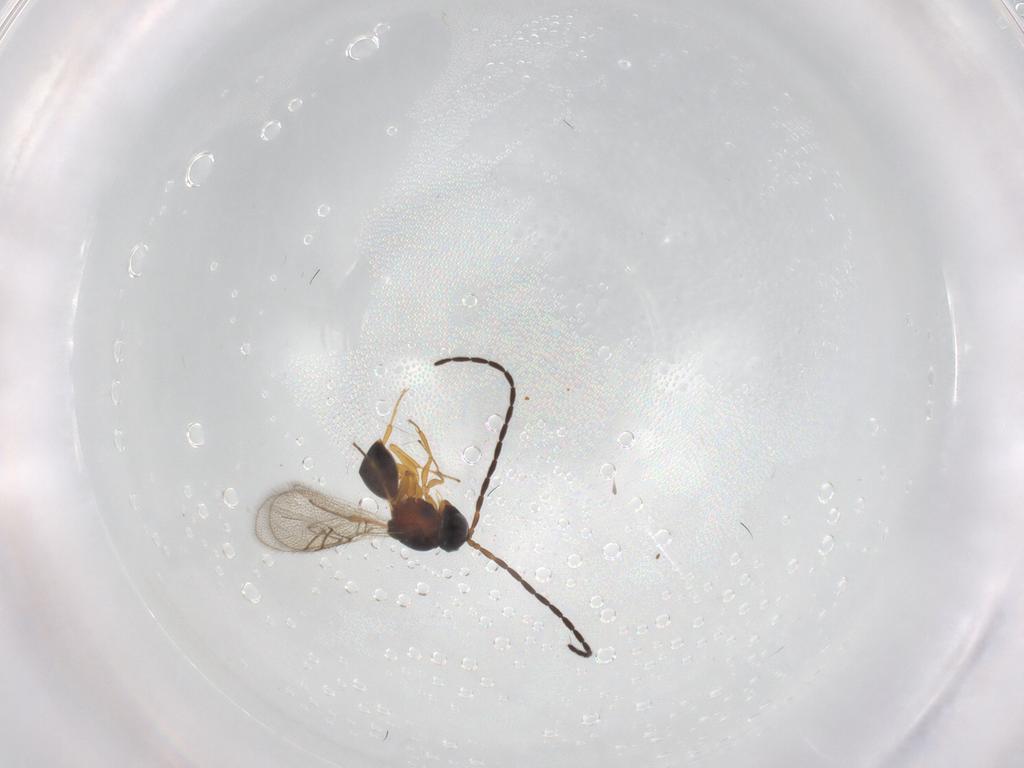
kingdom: Animalia
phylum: Arthropoda
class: Insecta
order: Hymenoptera
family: Figitidae
